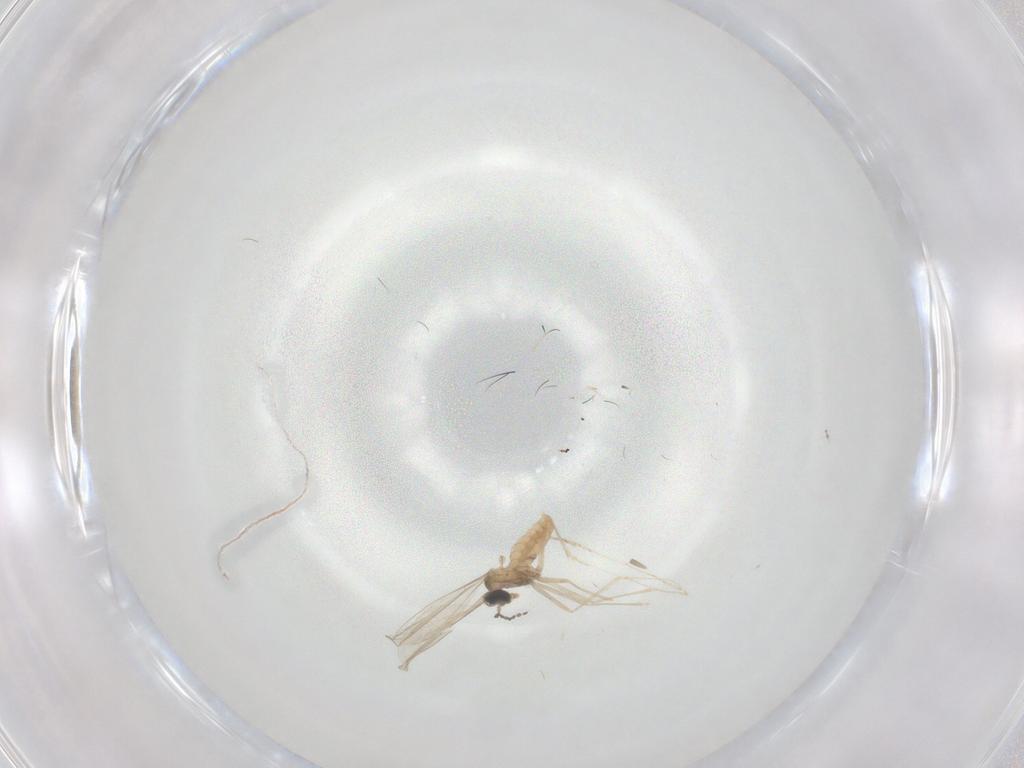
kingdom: Animalia
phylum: Arthropoda
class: Insecta
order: Diptera
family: Cecidomyiidae
